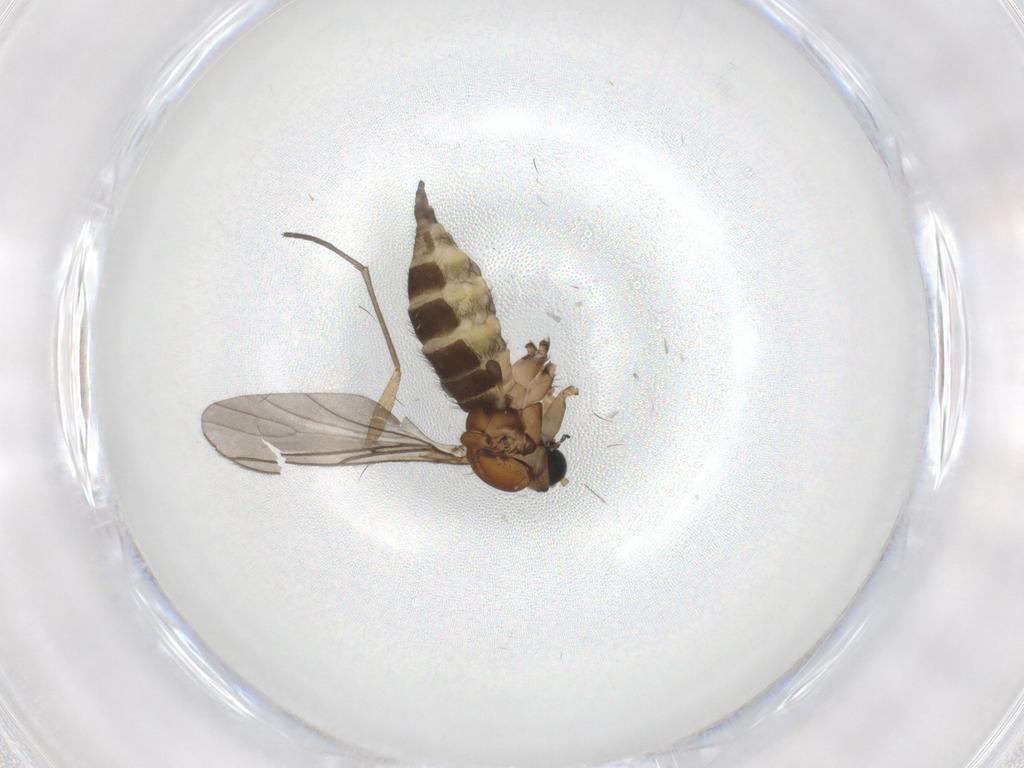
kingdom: Animalia
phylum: Arthropoda
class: Insecta
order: Diptera
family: Sciaridae
